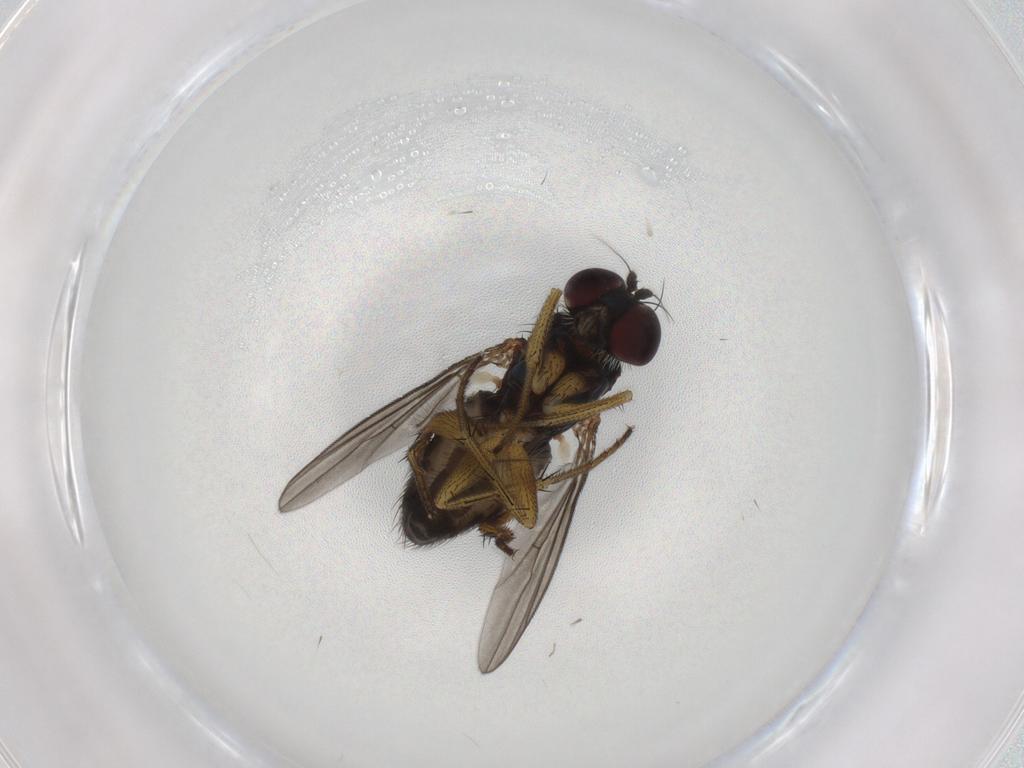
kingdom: Animalia
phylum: Arthropoda
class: Insecta
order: Diptera
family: Dolichopodidae
